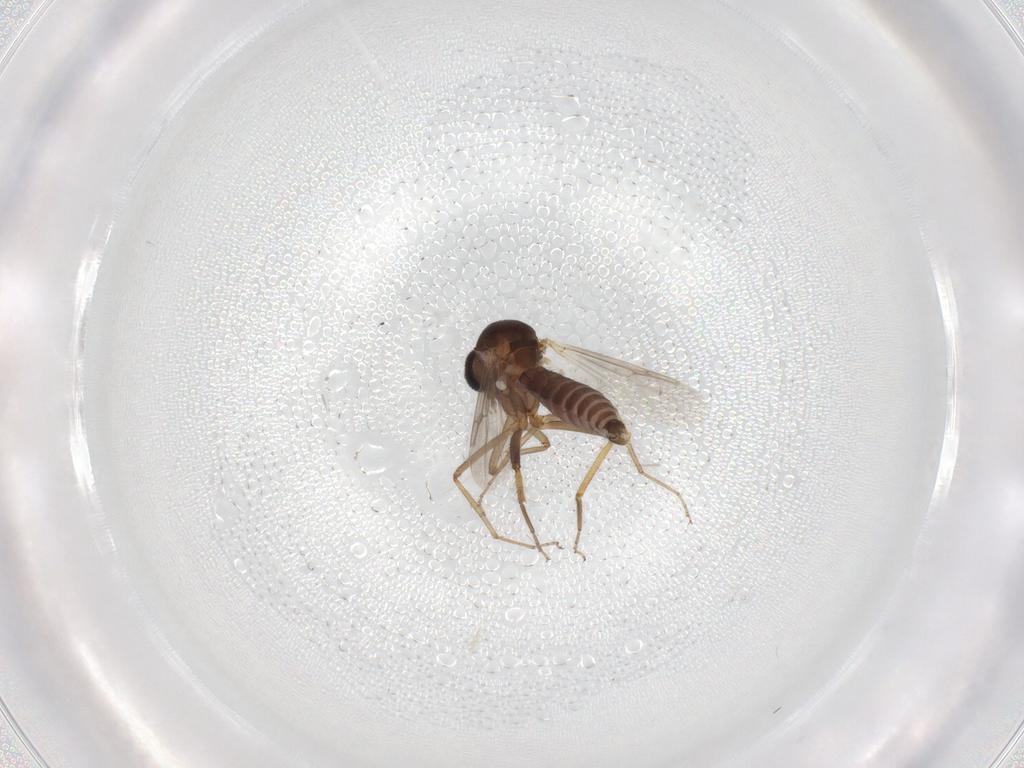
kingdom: Animalia
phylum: Arthropoda
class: Insecta
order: Diptera
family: Ceratopogonidae
